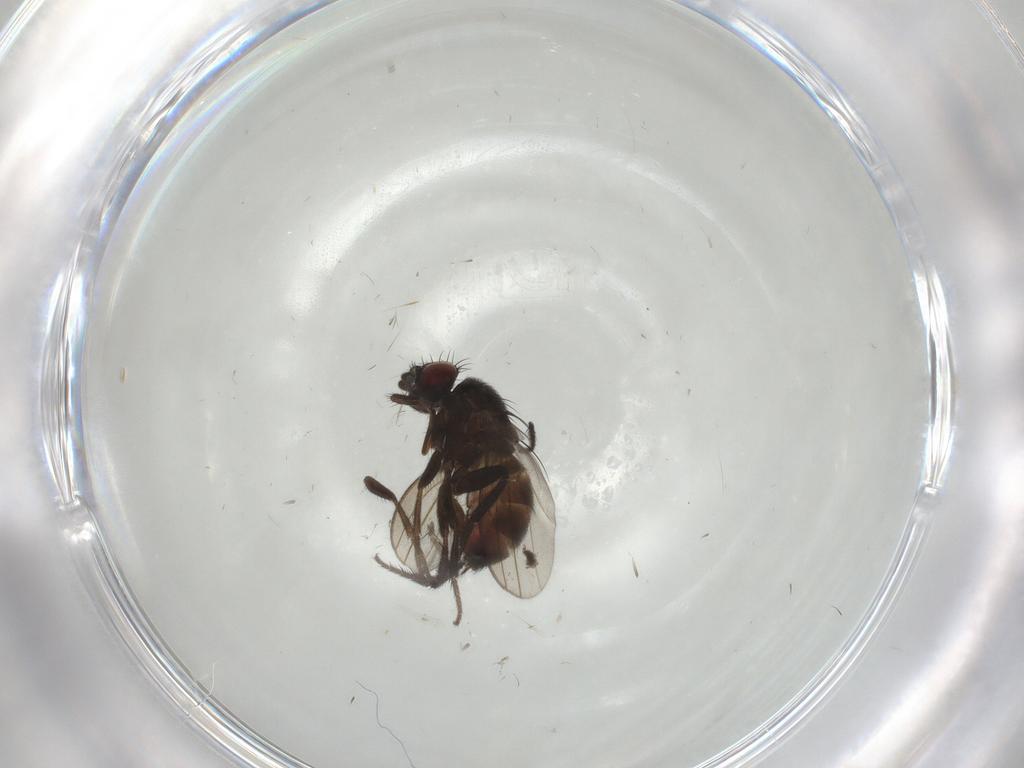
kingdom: Animalia
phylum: Arthropoda
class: Insecta
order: Diptera
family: Milichiidae
